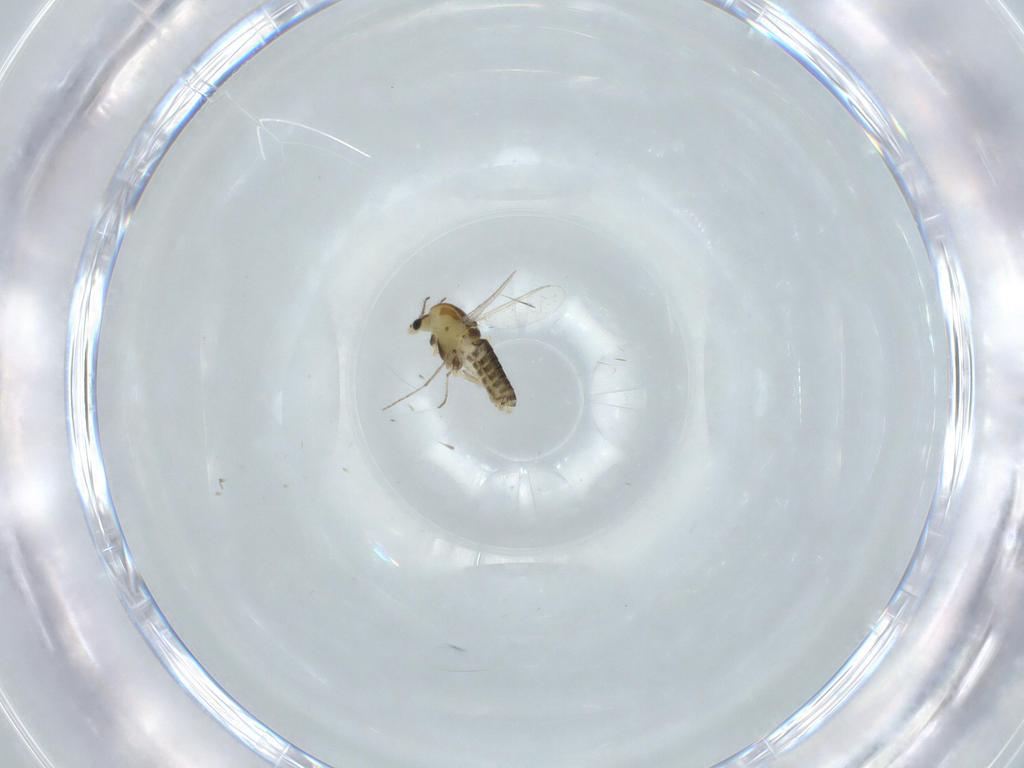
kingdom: Animalia
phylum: Arthropoda
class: Insecta
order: Diptera
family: Chironomidae
